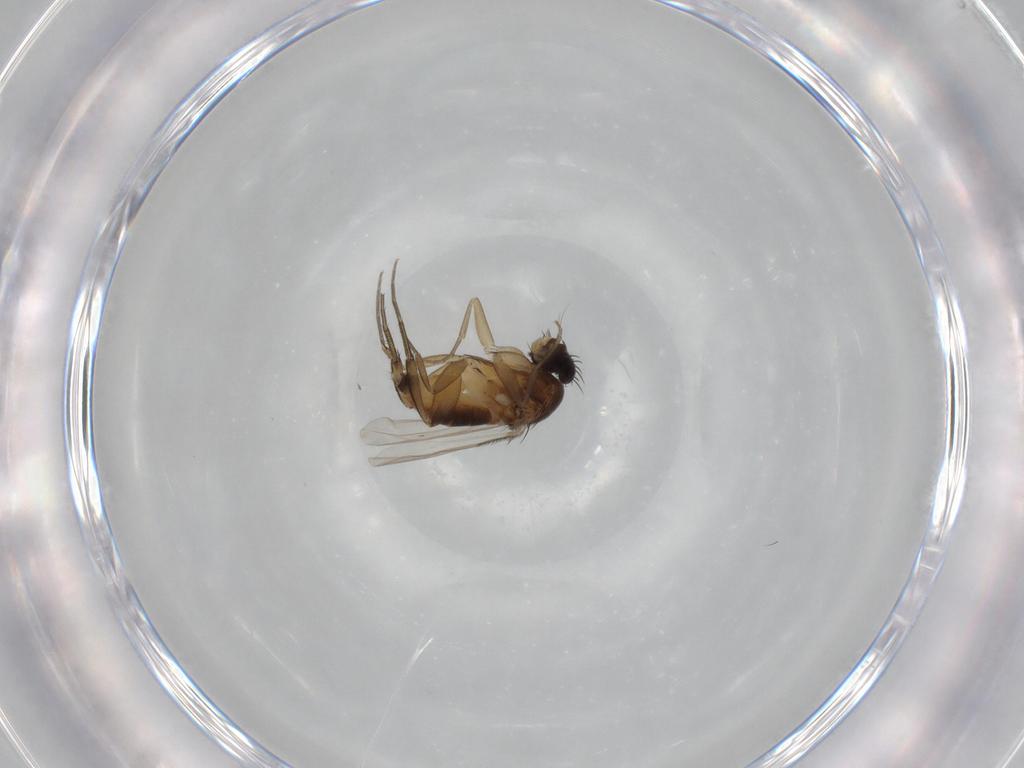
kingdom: Animalia
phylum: Arthropoda
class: Insecta
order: Diptera
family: Phoridae
